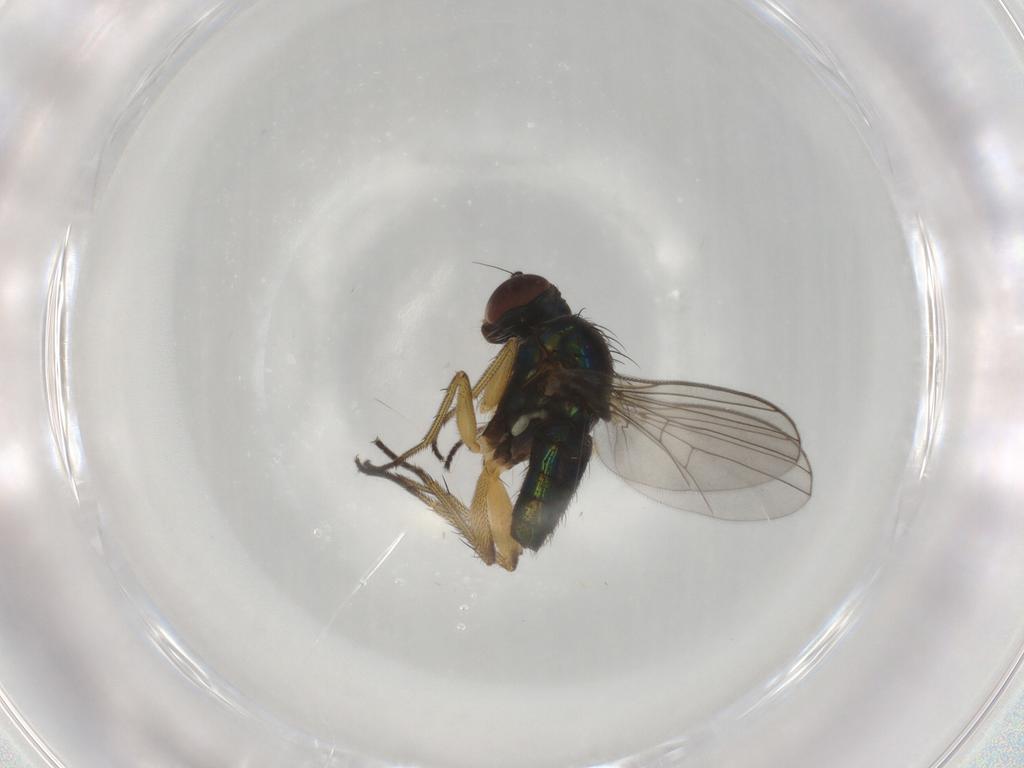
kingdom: Animalia
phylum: Arthropoda
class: Insecta
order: Diptera
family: Dolichopodidae
